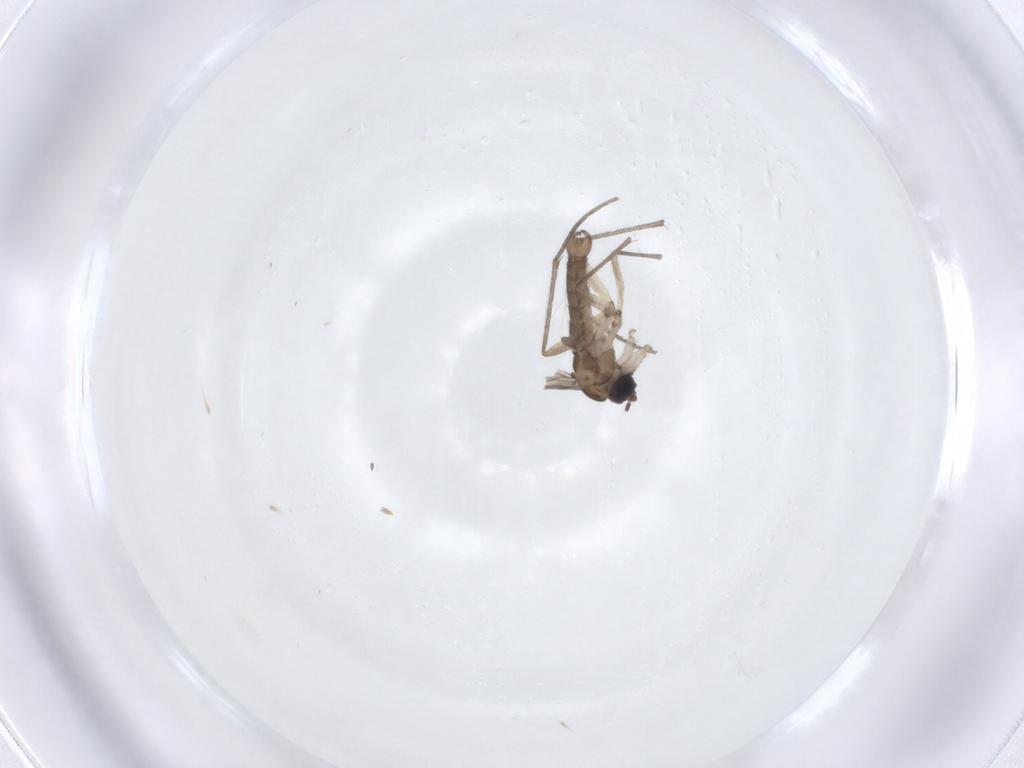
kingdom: Animalia
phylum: Arthropoda
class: Insecta
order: Diptera
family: Sciaridae
